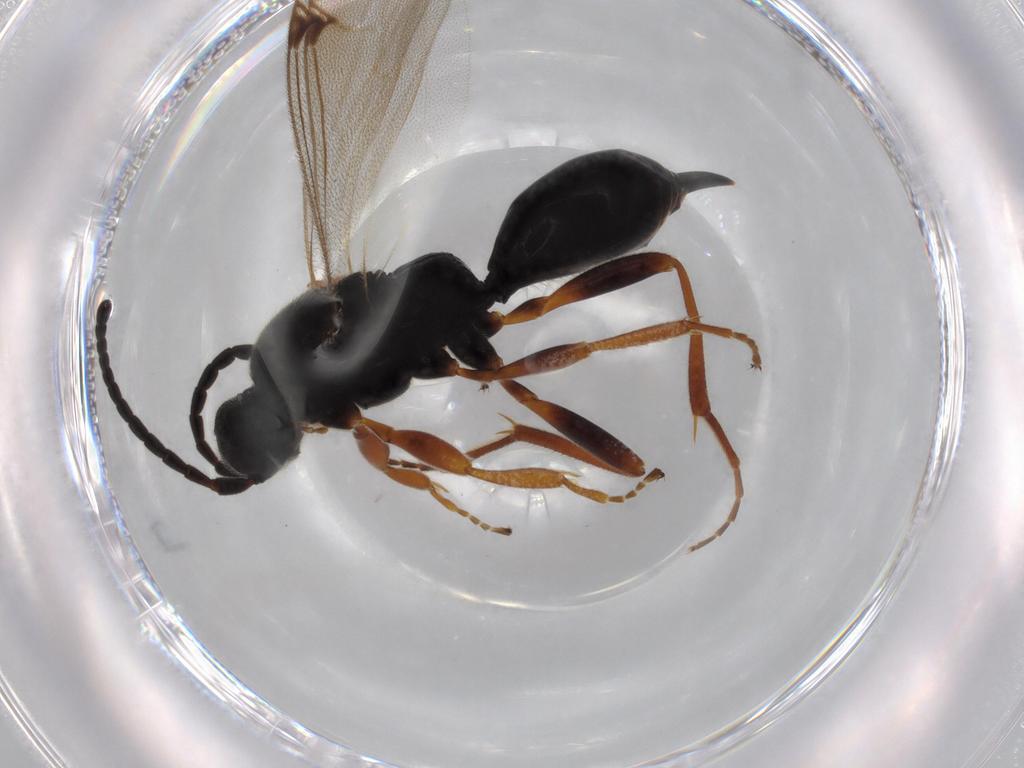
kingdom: Animalia
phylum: Arthropoda
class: Insecta
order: Hymenoptera
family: Proctotrupidae
